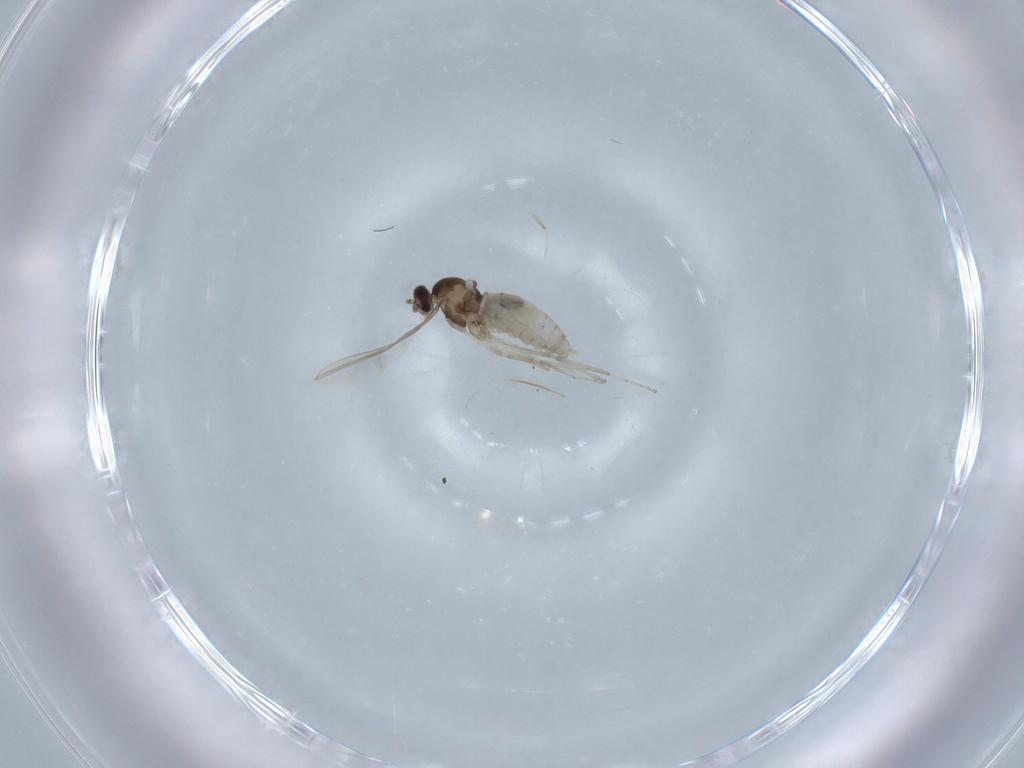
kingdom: Animalia
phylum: Arthropoda
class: Insecta
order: Diptera
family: Cecidomyiidae
